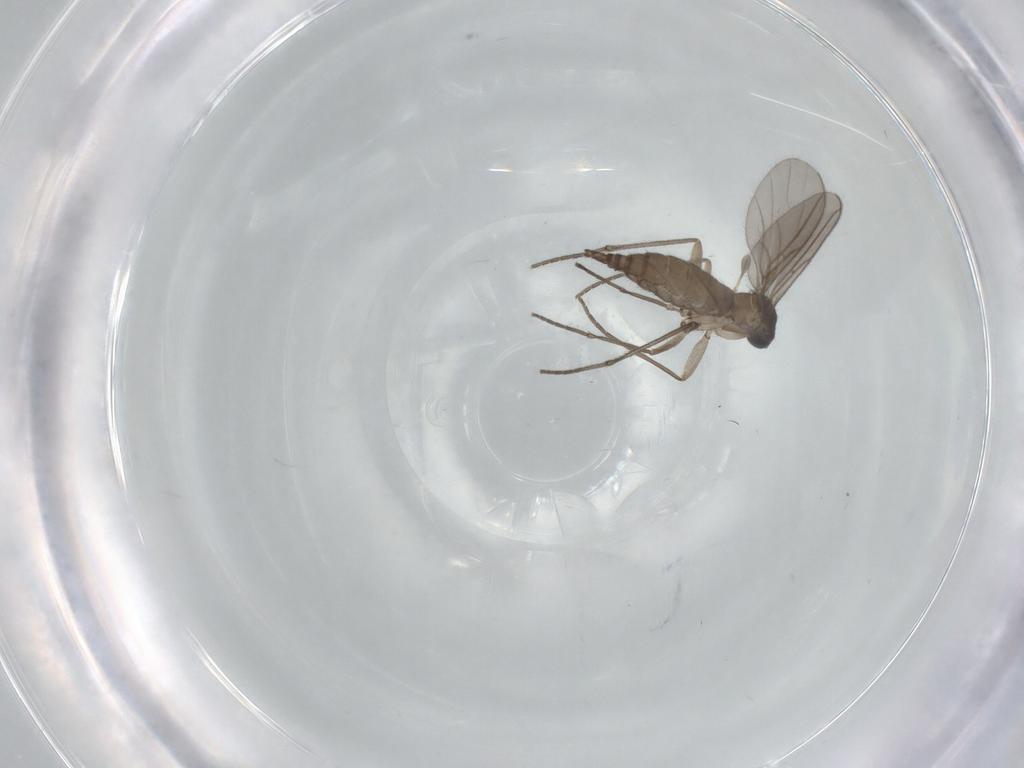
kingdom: Animalia
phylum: Arthropoda
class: Insecta
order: Diptera
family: Sciaridae
